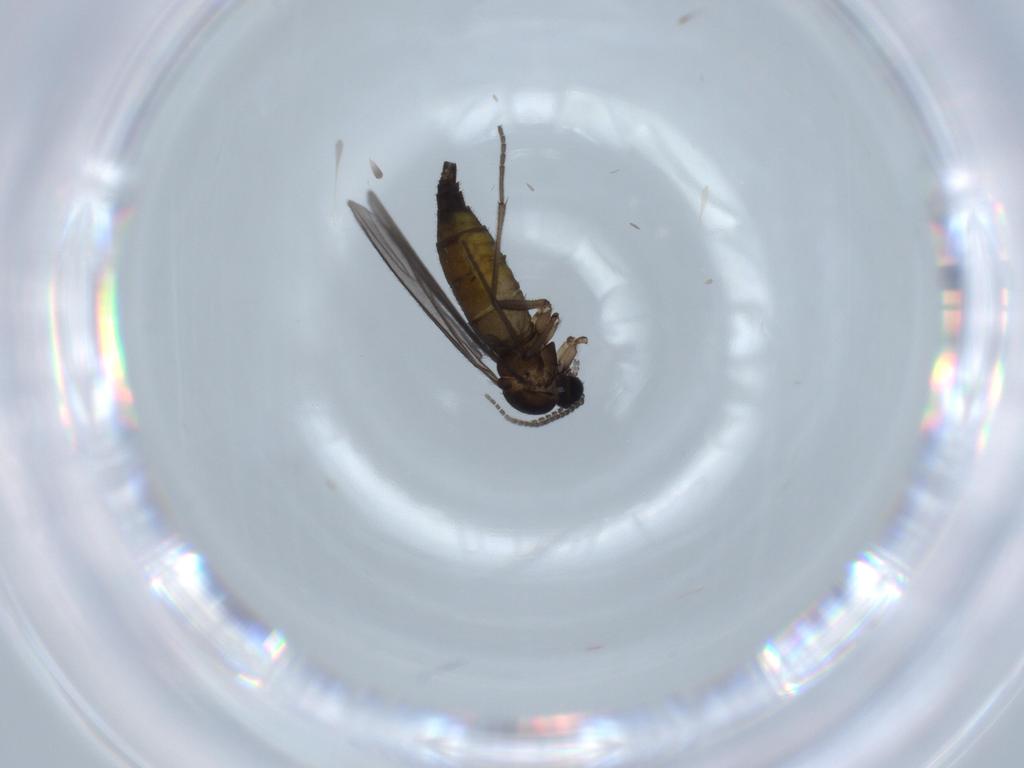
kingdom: Animalia
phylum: Arthropoda
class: Insecta
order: Diptera
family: Sciaridae
